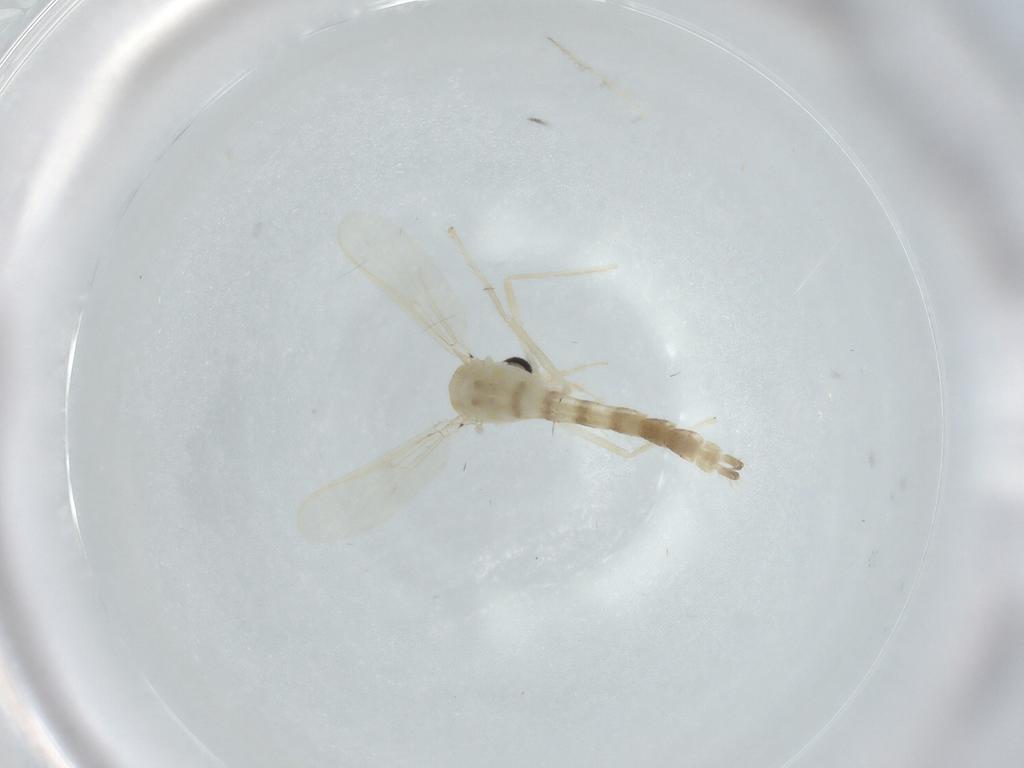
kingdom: Animalia
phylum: Arthropoda
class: Insecta
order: Diptera
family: Chironomidae
